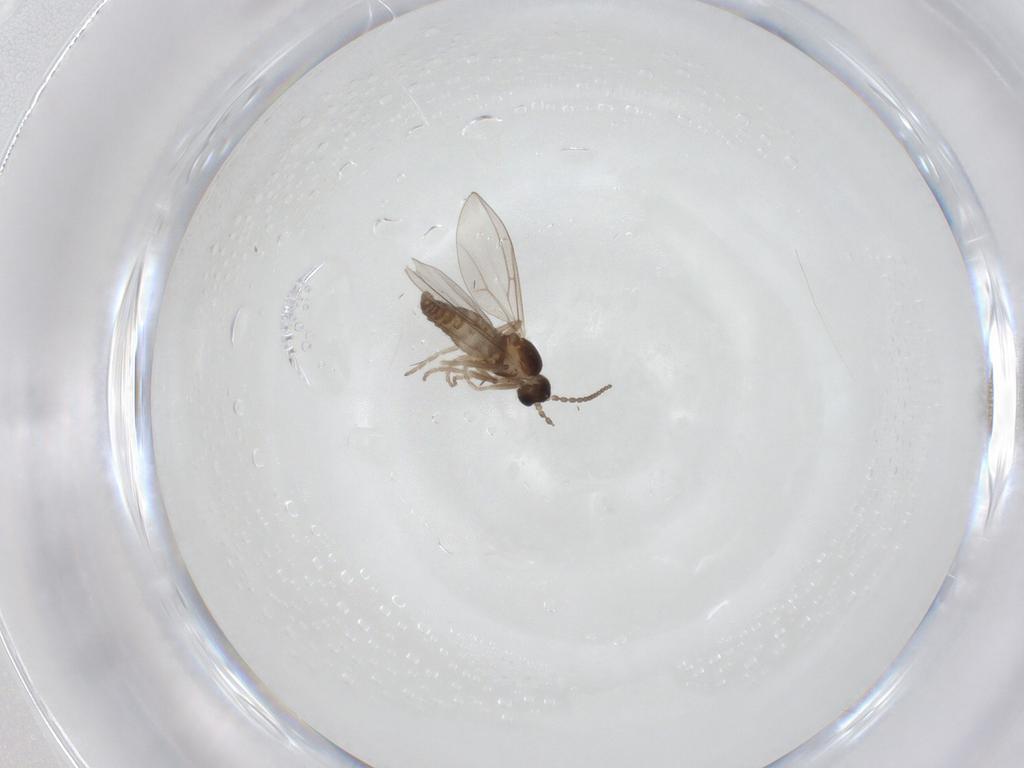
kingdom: Animalia
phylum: Arthropoda
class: Insecta
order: Diptera
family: Cecidomyiidae
